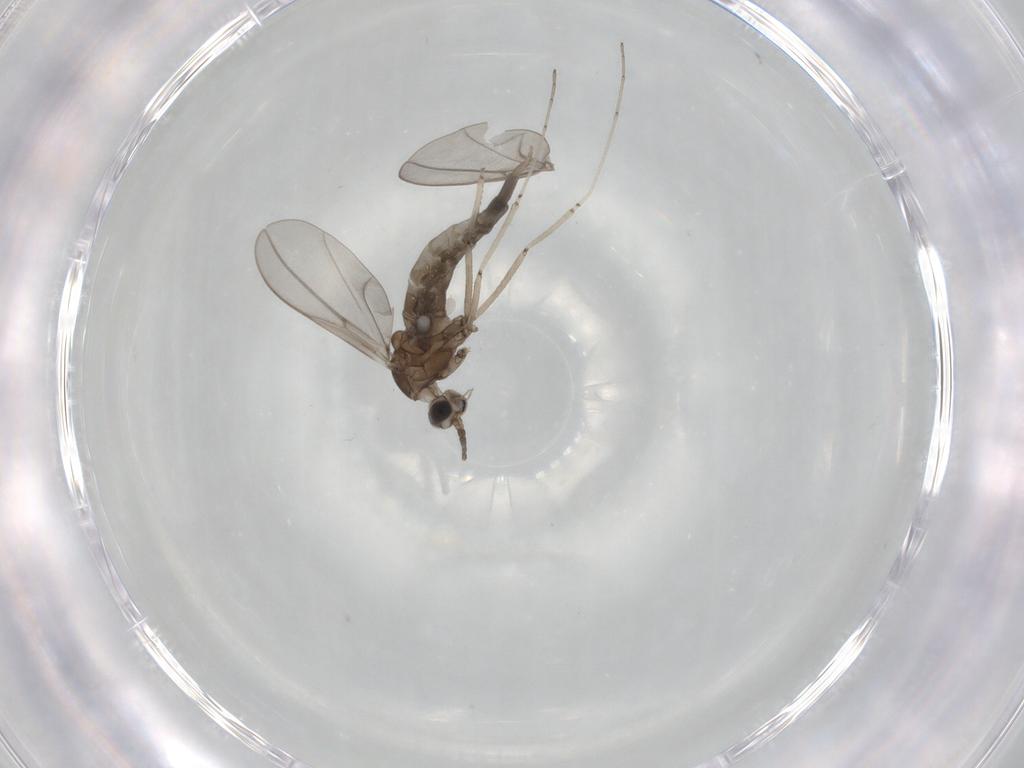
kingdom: Animalia
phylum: Arthropoda
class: Insecta
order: Diptera
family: Cecidomyiidae
